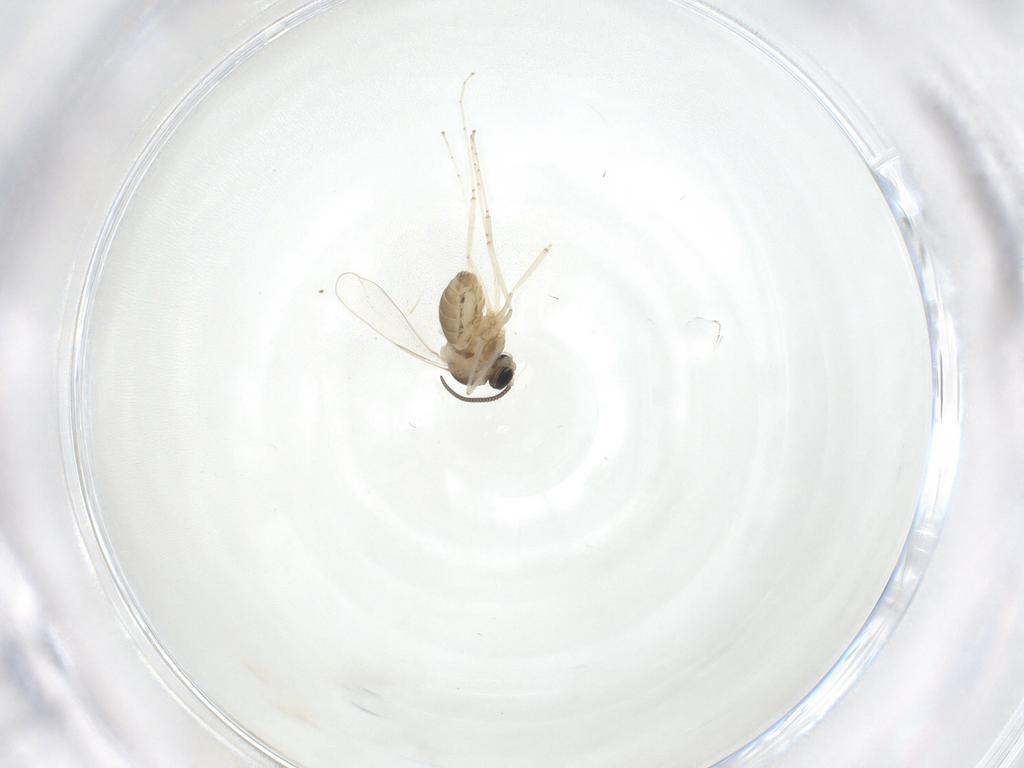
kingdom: Animalia
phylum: Arthropoda
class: Insecta
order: Diptera
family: Cecidomyiidae
